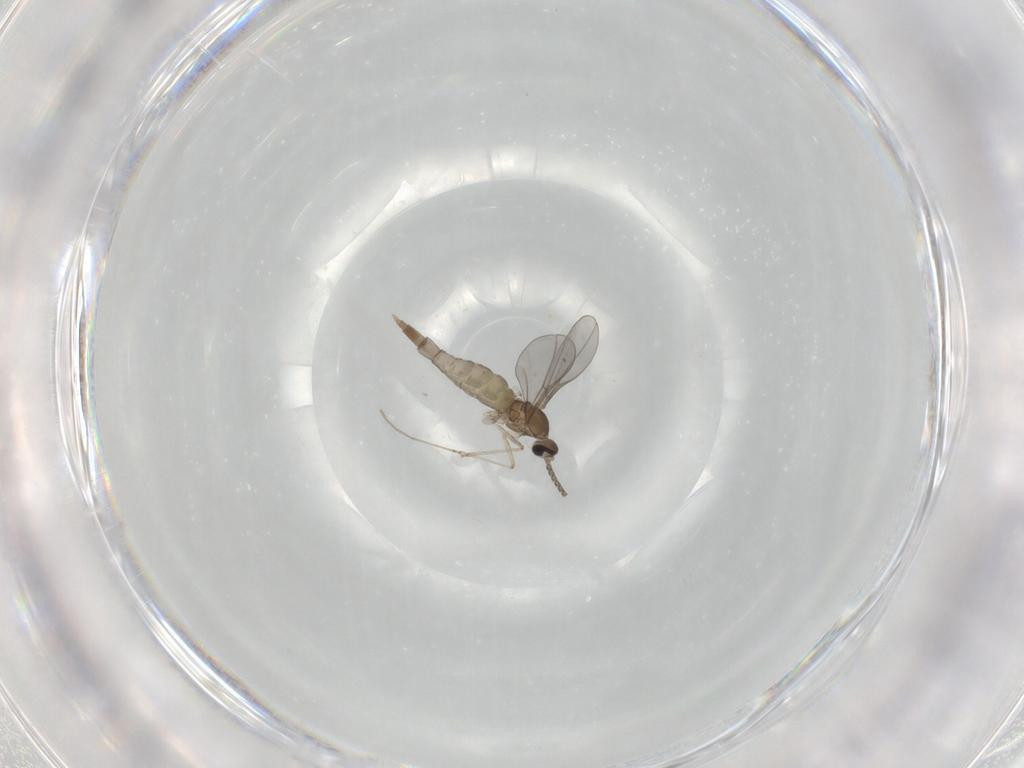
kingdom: Animalia
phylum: Arthropoda
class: Insecta
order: Diptera
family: Cecidomyiidae
